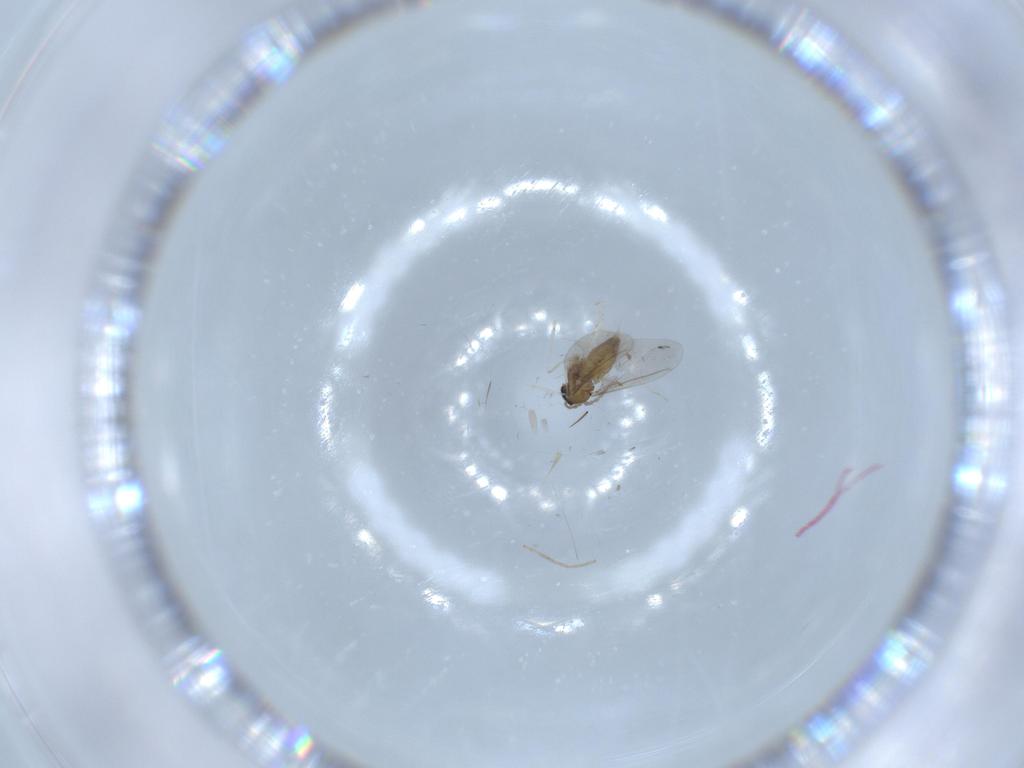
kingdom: Animalia
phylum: Arthropoda
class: Insecta
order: Diptera
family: Cecidomyiidae
